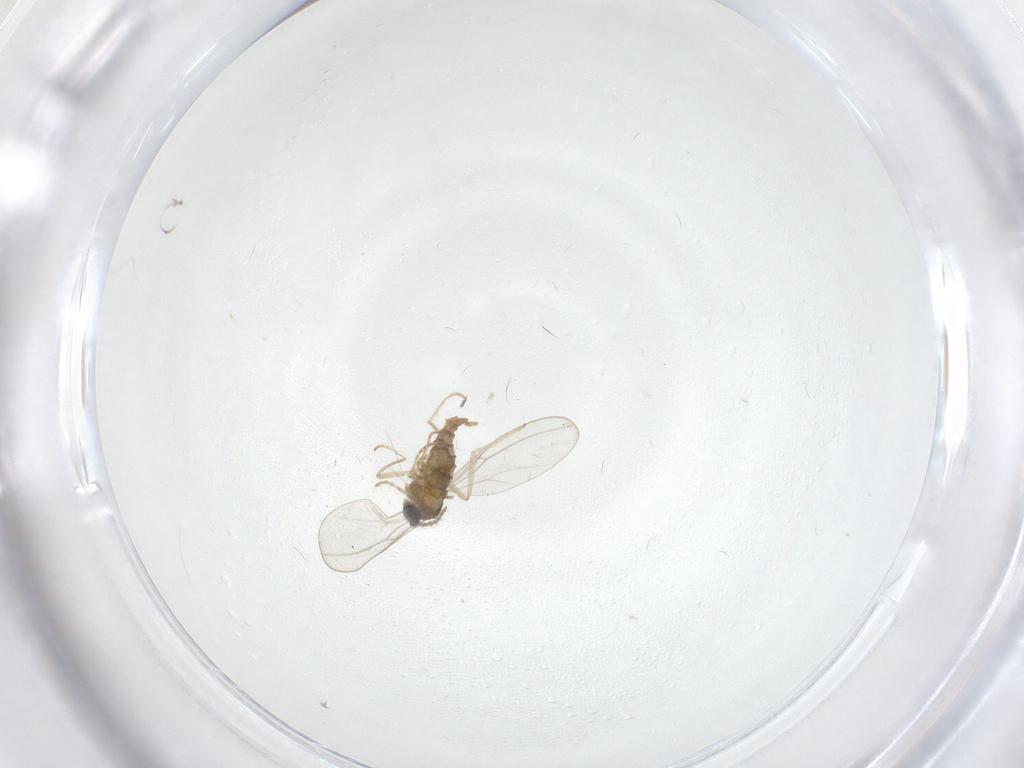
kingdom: Animalia
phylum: Arthropoda
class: Insecta
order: Diptera
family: Cecidomyiidae
